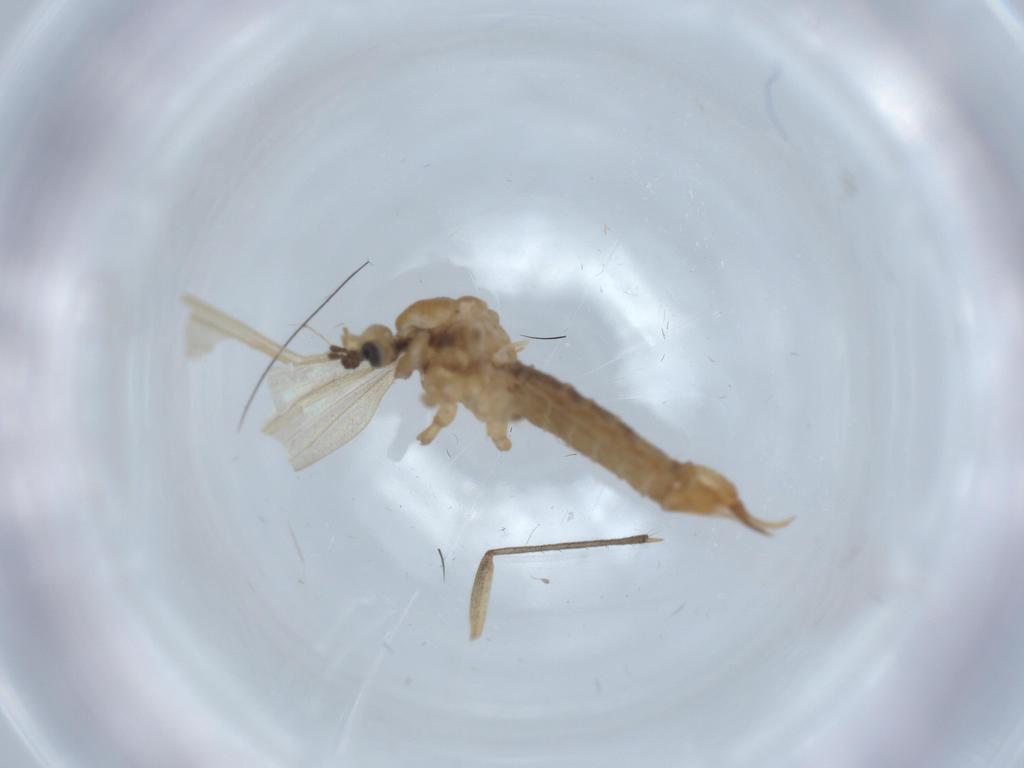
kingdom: Animalia
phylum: Arthropoda
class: Insecta
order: Diptera
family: Limoniidae
